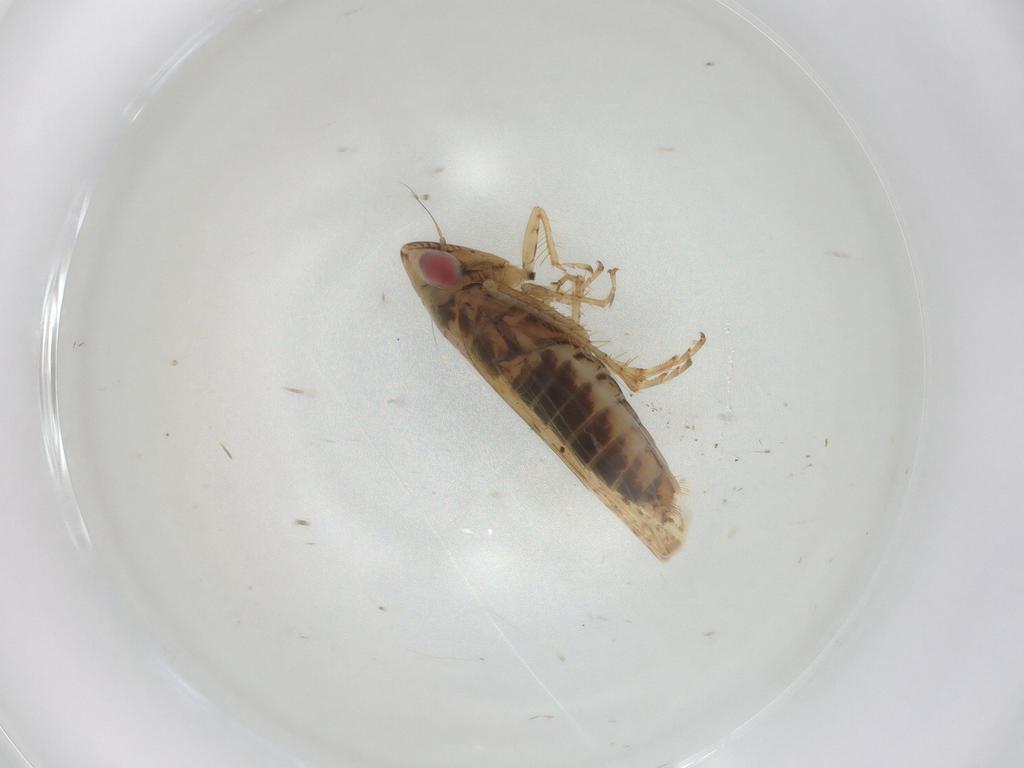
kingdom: Animalia
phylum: Arthropoda
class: Insecta
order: Hemiptera
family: Cicadellidae
